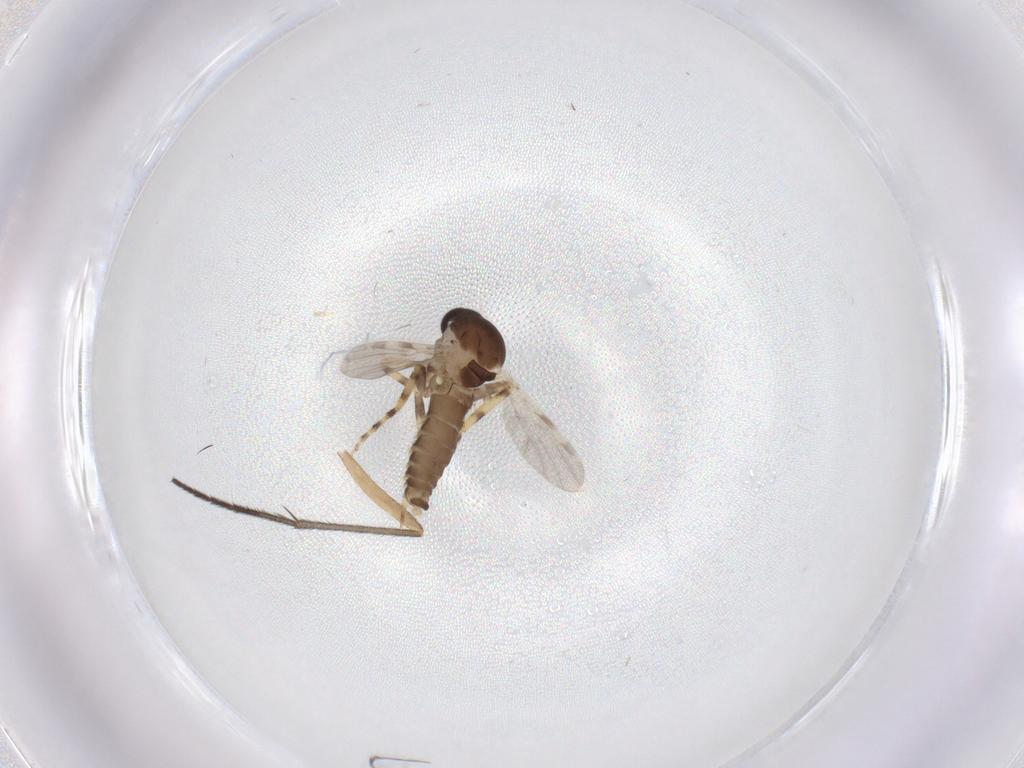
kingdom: Animalia
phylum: Arthropoda
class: Insecta
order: Diptera
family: Ceratopogonidae
